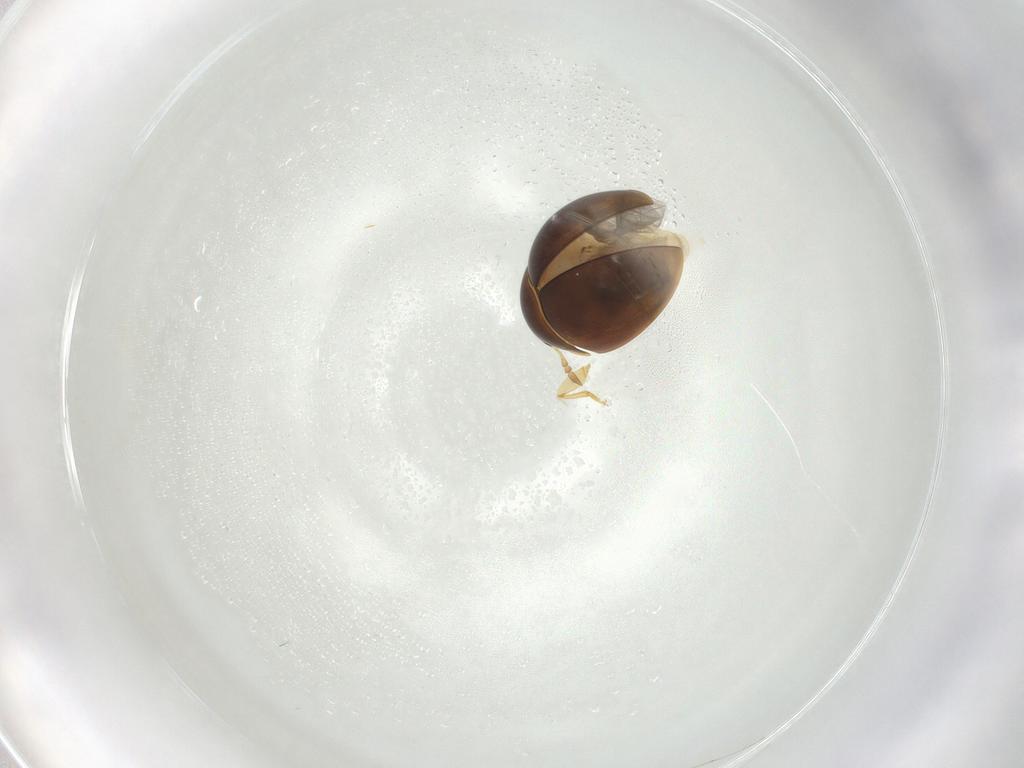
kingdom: Animalia
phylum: Arthropoda
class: Insecta
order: Coleoptera
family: Phalacridae
